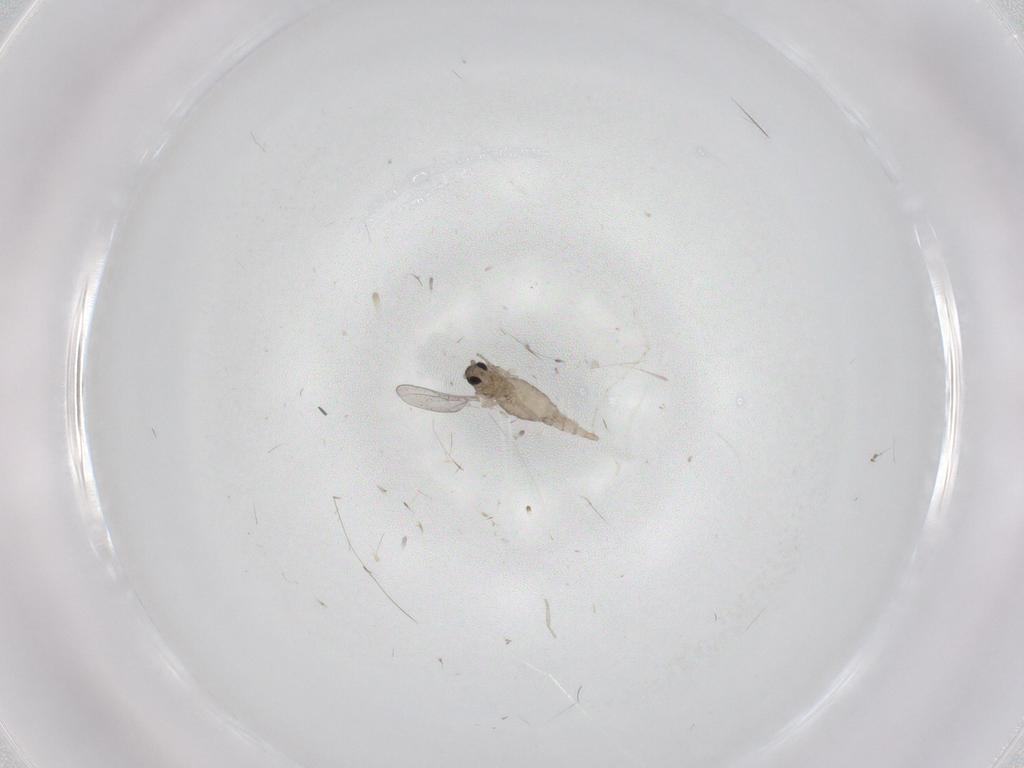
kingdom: Animalia
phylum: Arthropoda
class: Insecta
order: Diptera
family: Cecidomyiidae
